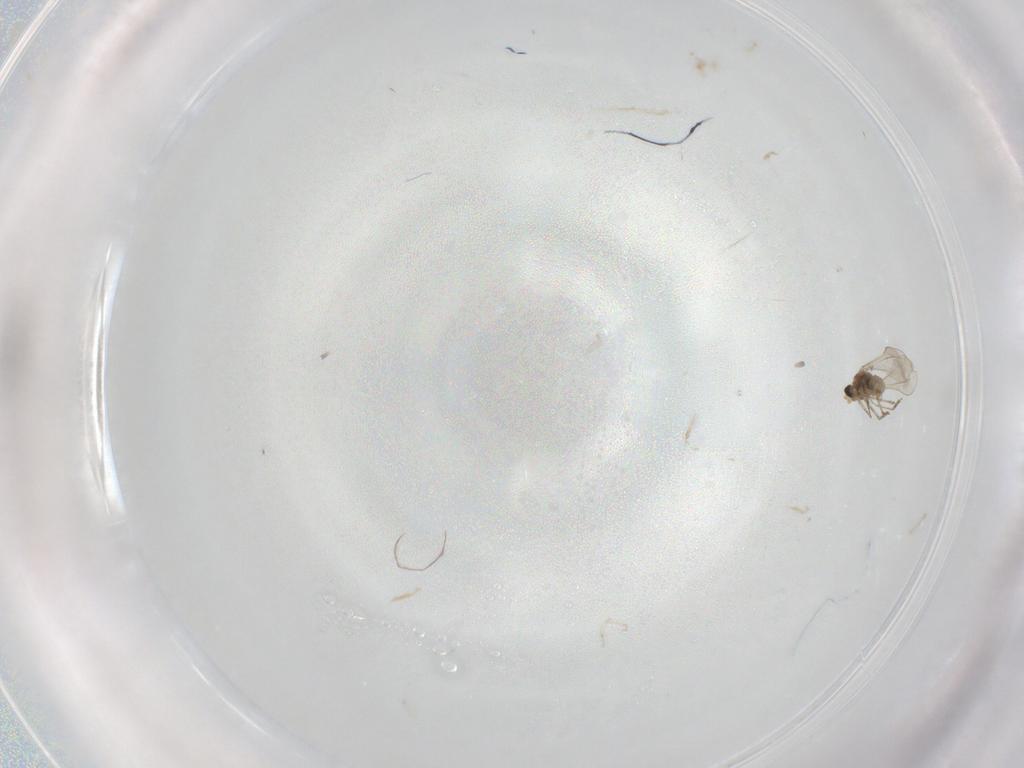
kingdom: Animalia
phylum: Arthropoda
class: Insecta
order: Diptera
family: Cecidomyiidae
